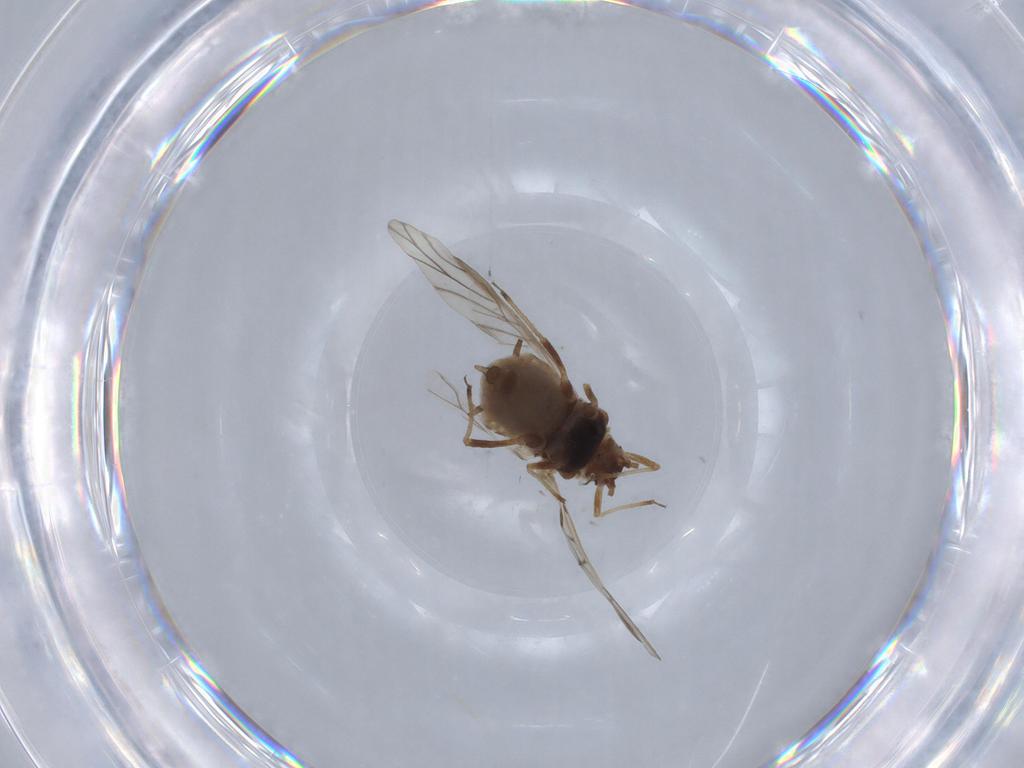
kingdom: Animalia
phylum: Arthropoda
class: Insecta
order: Hemiptera
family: Aphididae
